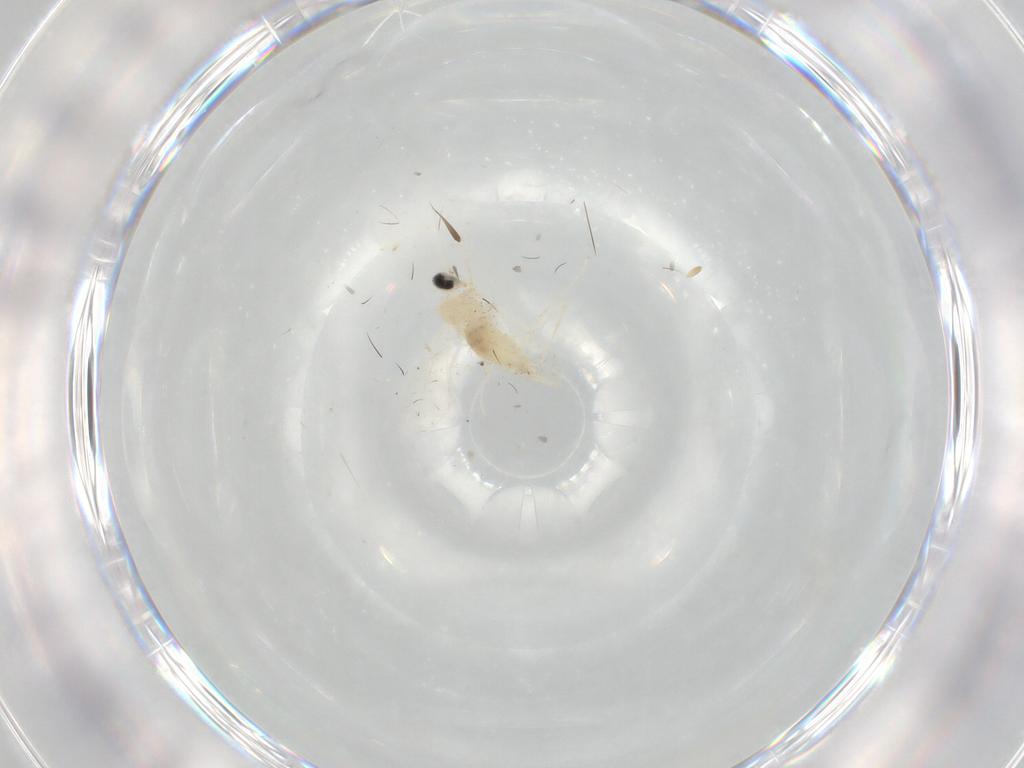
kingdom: Animalia
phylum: Arthropoda
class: Insecta
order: Diptera
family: Cecidomyiidae
